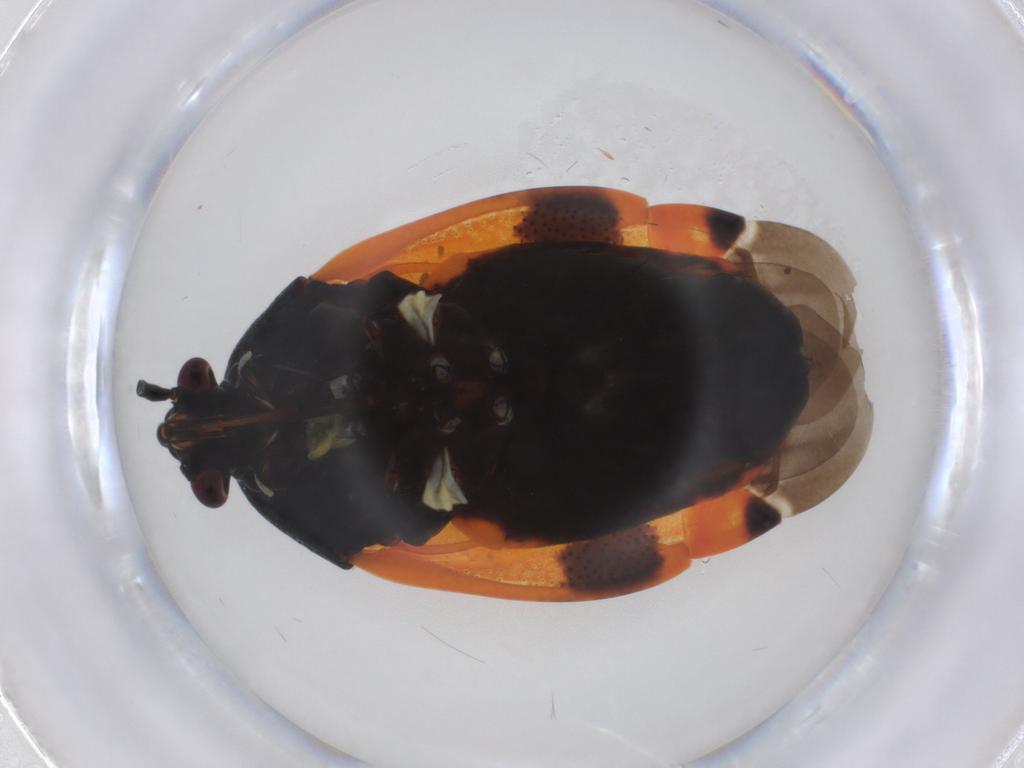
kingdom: Animalia
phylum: Arthropoda
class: Insecta
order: Hemiptera
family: Miridae
